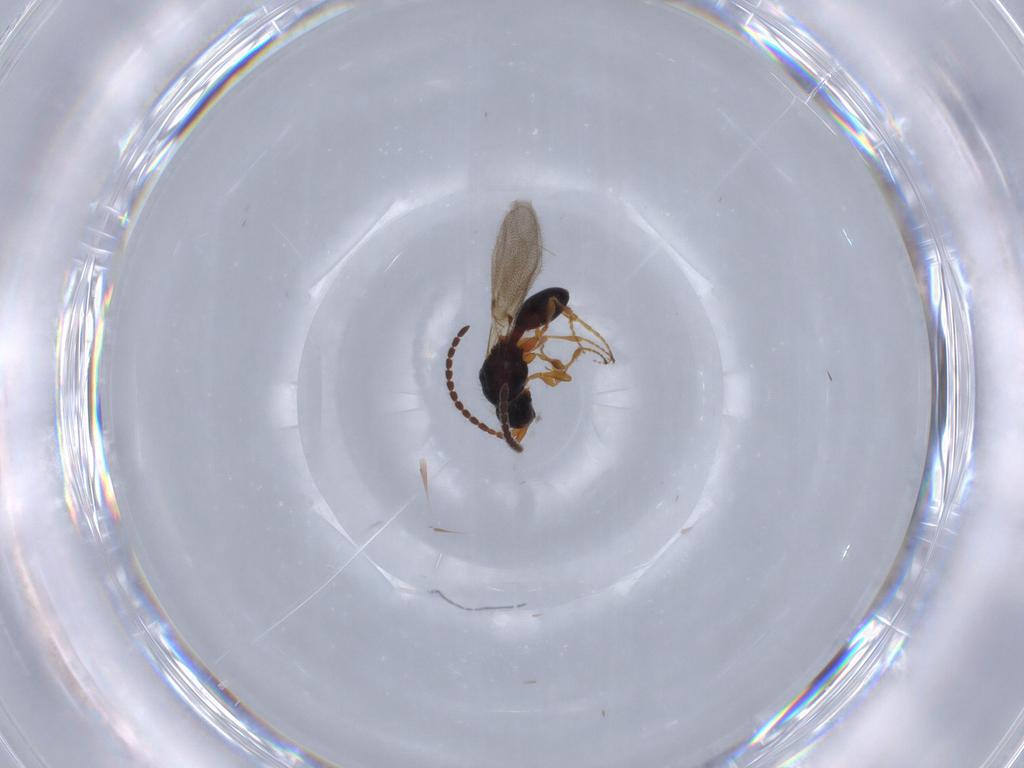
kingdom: Animalia
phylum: Arthropoda
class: Insecta
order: Hymenoptera
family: Diapriidae
